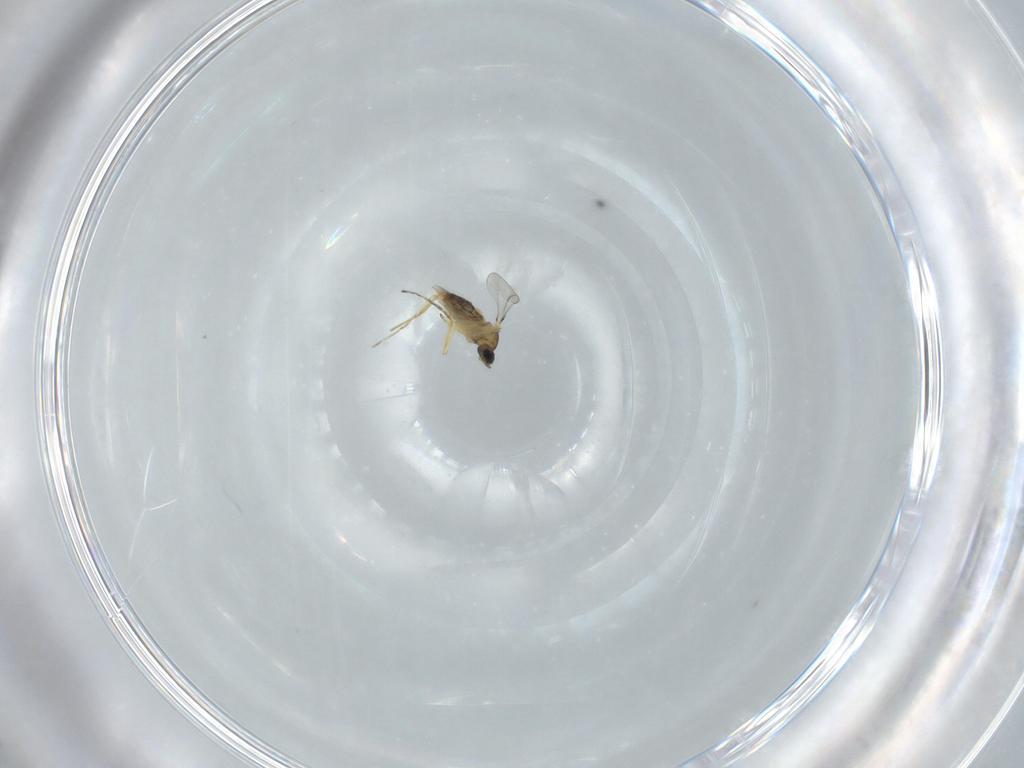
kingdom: Animalia
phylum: Arthropoda
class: Insecta
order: Diptera
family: Cecidomyiidae
